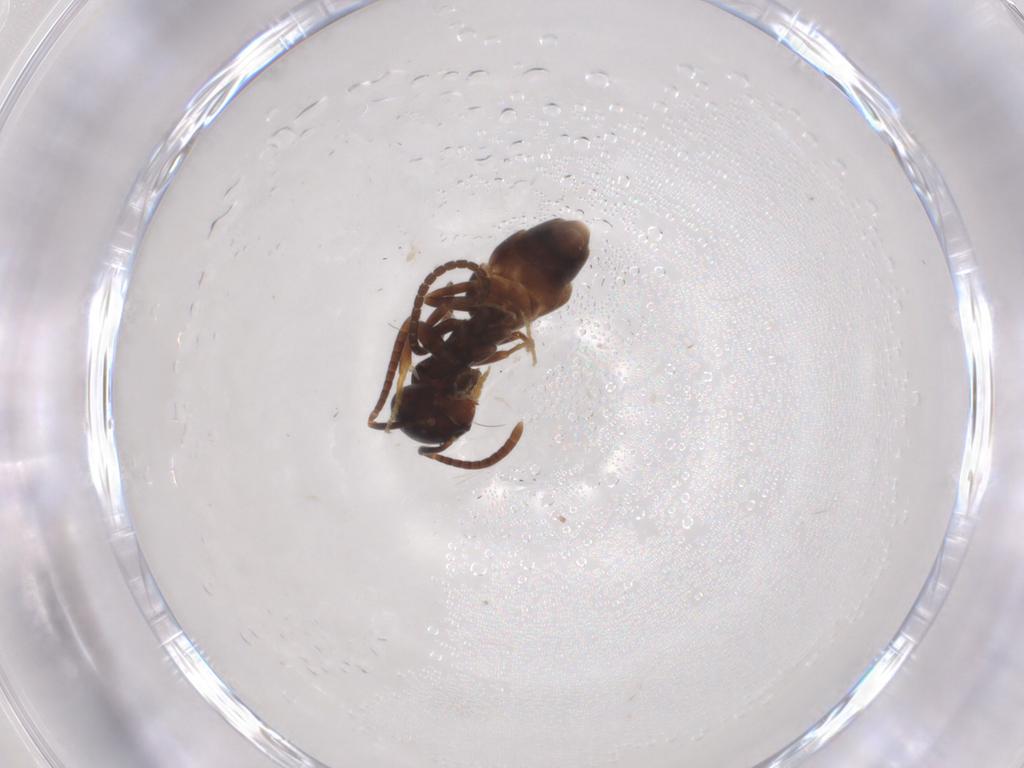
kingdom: Animalia
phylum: Arthropoda
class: Insecta
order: Hymenoptera
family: Formicidae
